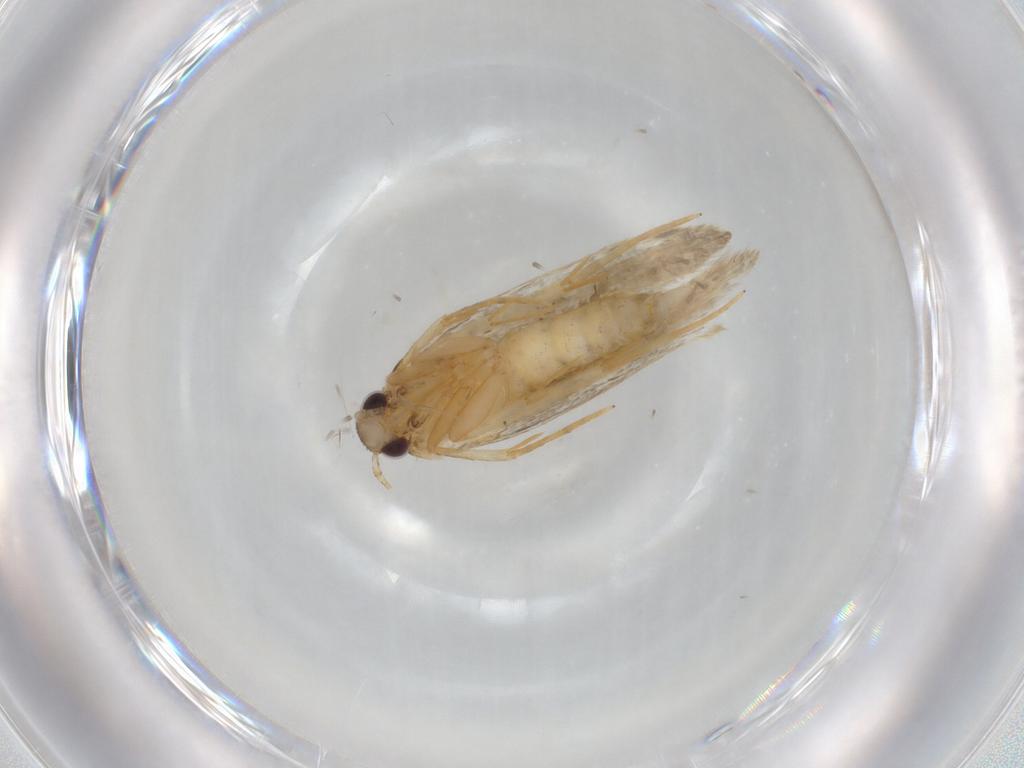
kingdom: Animalia
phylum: Arthropoda
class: Insecta
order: Lepidoptera
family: Autostichidae
